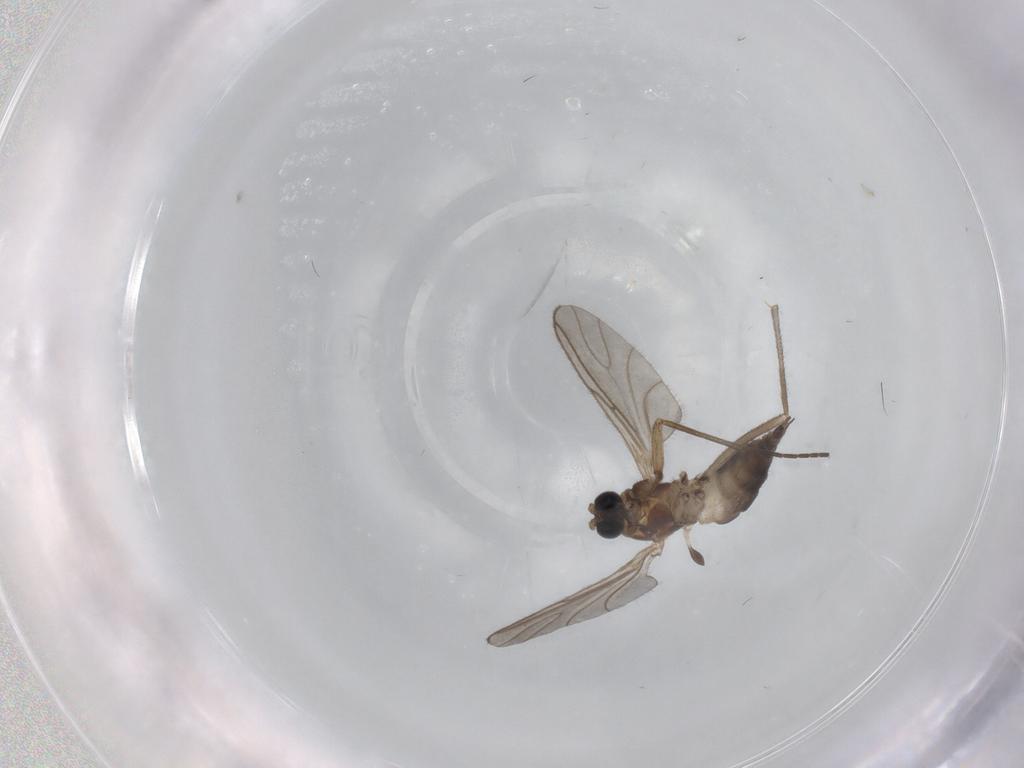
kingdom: Animalia
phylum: Arthropoda
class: Insecta
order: Diptera
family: Sciaridae
